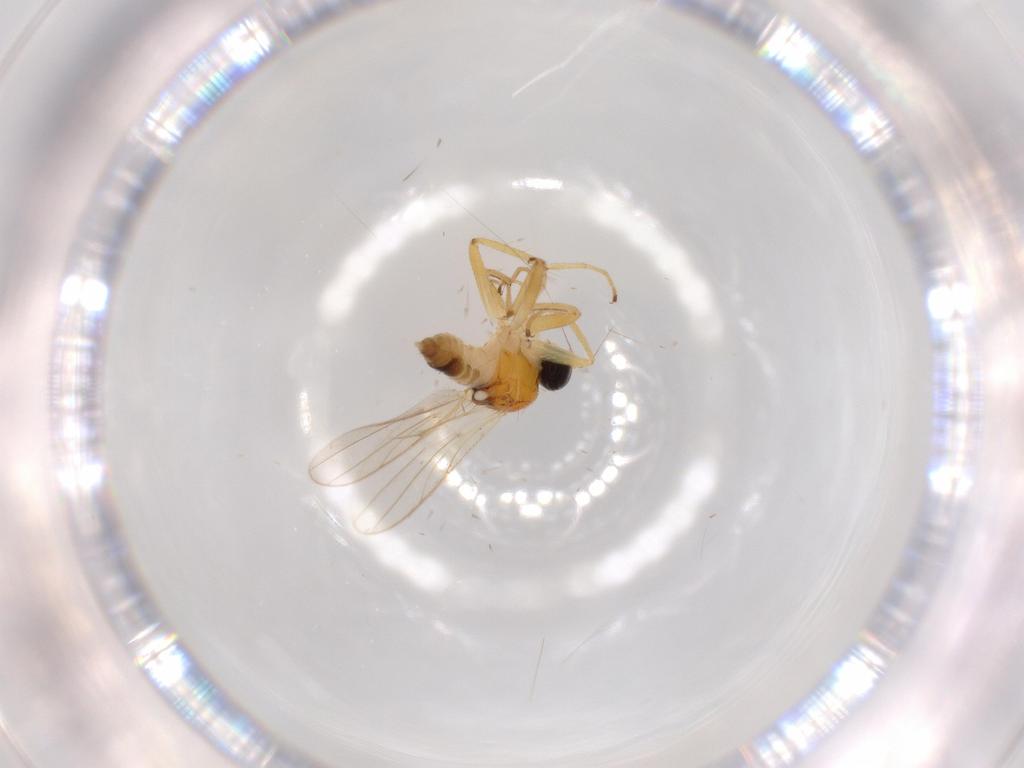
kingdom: Animalia
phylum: Arthropoda
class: Insecta
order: Diptera
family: Hybotidae
